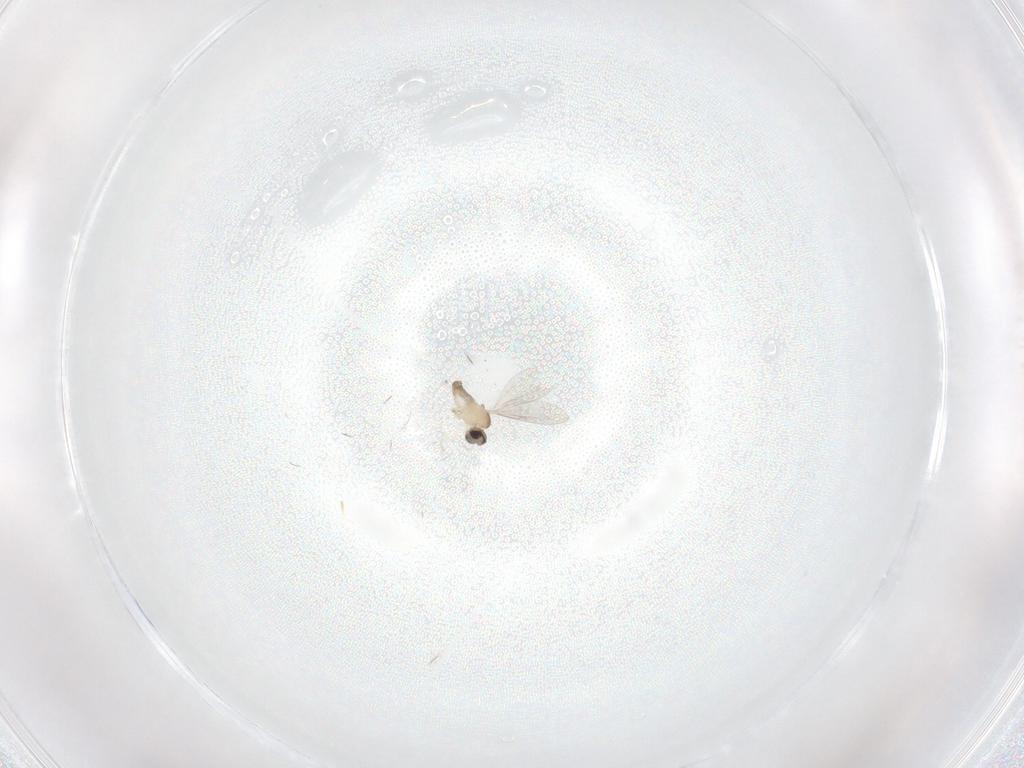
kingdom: Animalia
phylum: Arthropoda
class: Insecta
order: Diptera
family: Cecidomyiidae
